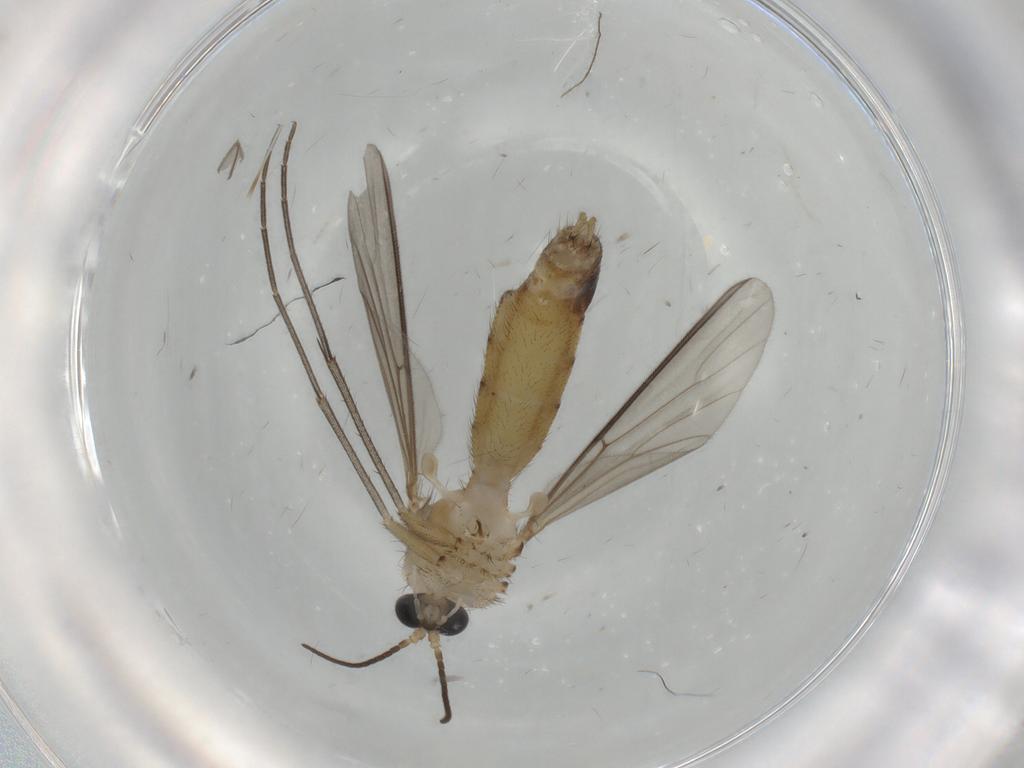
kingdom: Animalia
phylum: Arthropoda
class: Insecta
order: Diptera
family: Sciaridae
